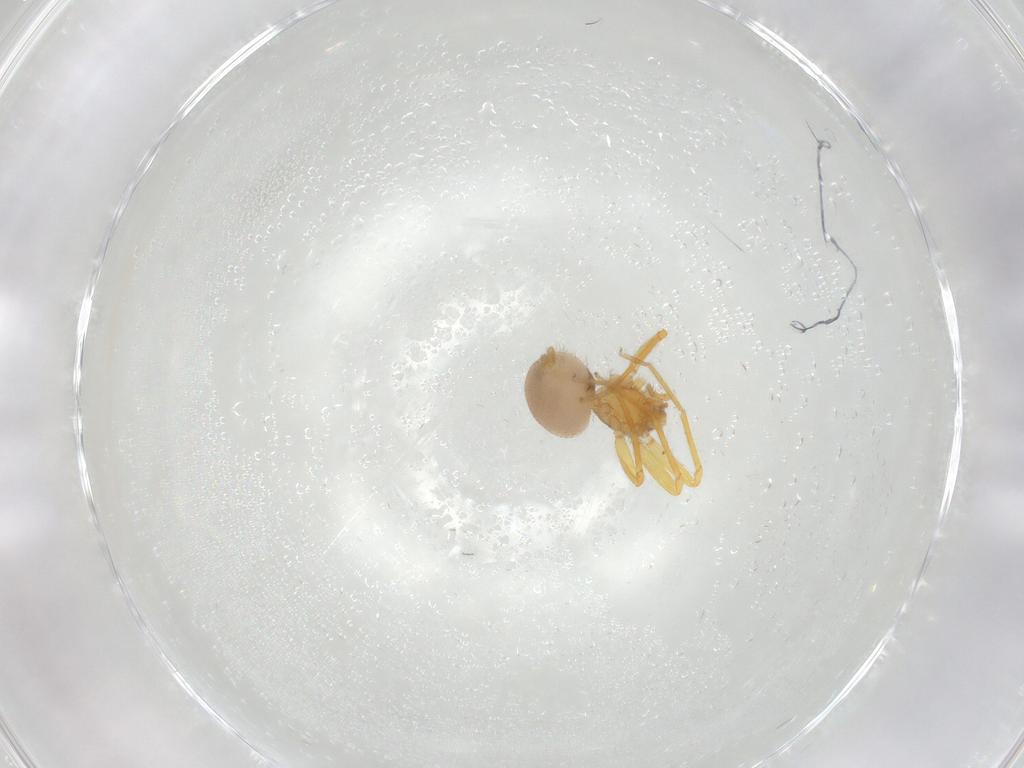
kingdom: Animalia
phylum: Arthropoda
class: Arachnida
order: Araneae
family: Oonopidae
